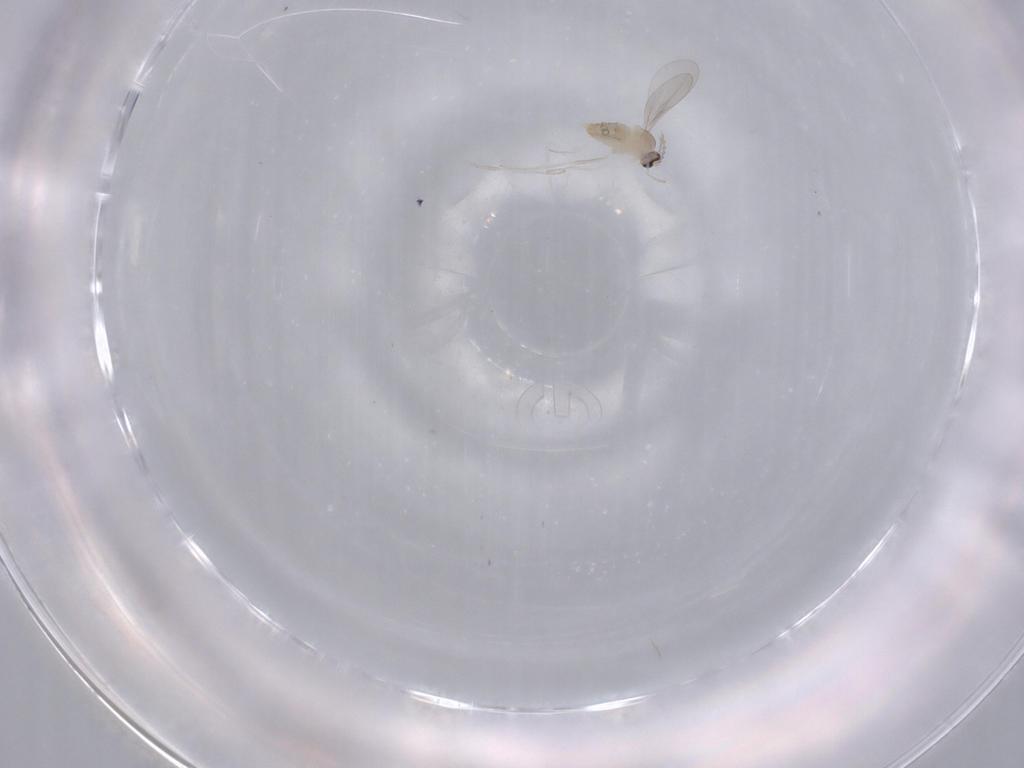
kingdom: Animalia
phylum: Arthropoda
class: Insecta
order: Diptera
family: Cecidomyiidae
